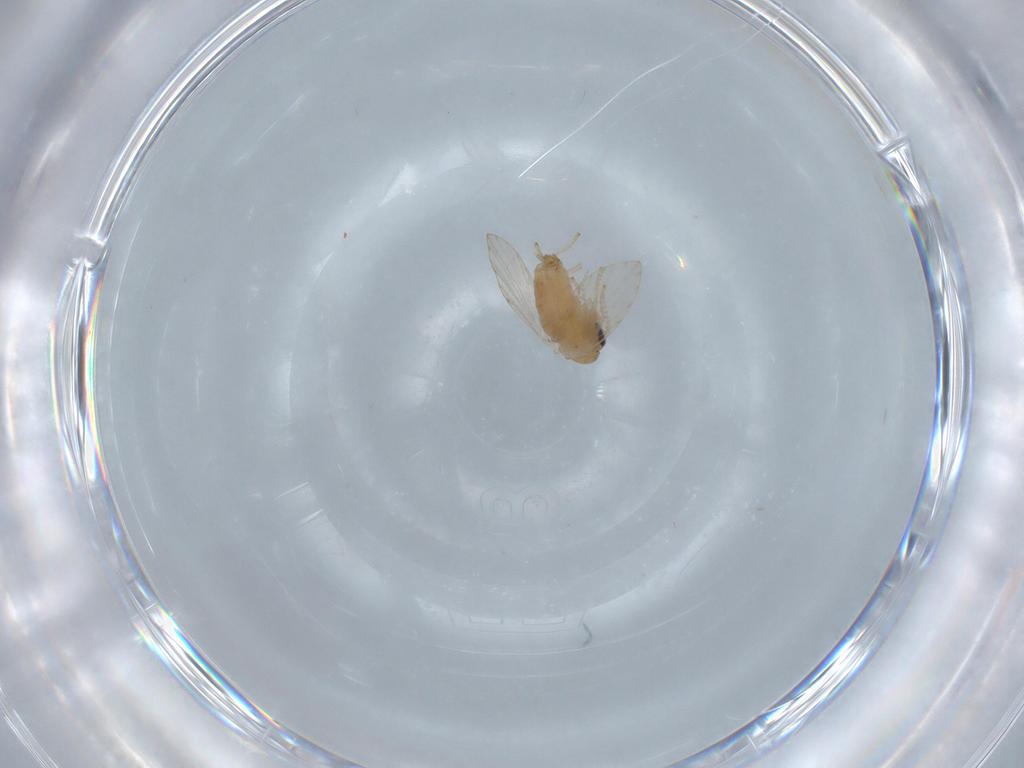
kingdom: Animalia
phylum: Arthropoda
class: Insecta
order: Diptera
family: Psychodidae
